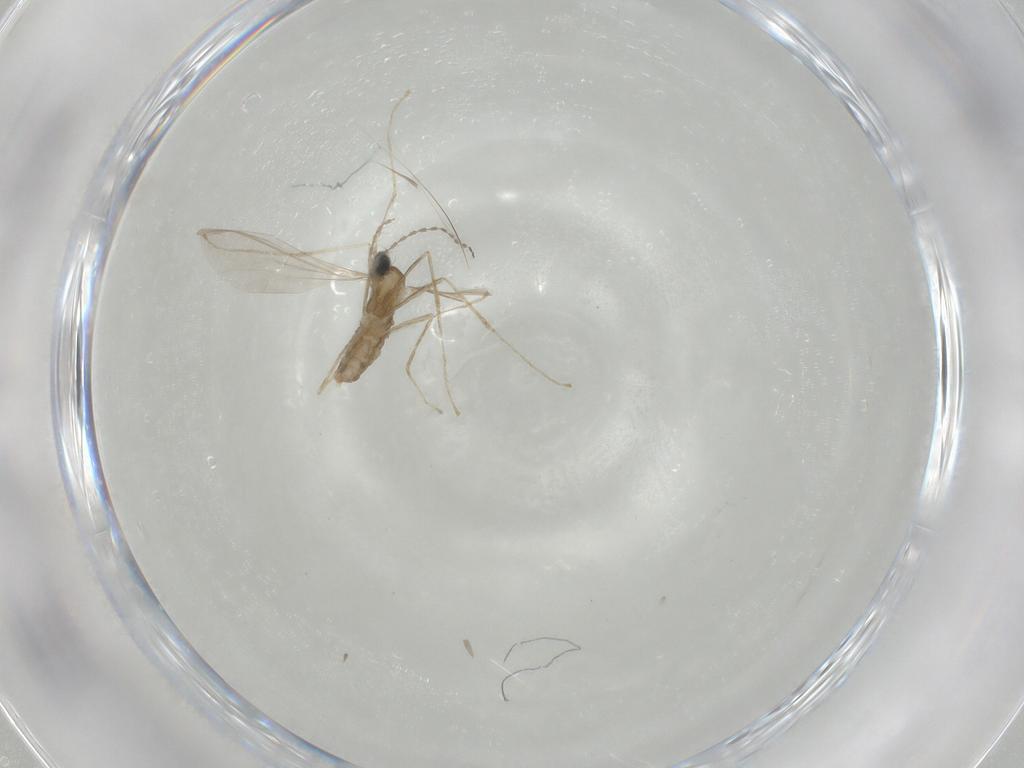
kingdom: Animalia
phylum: Arthropoda
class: Insecta
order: Diptera
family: Cecidomyiidae
